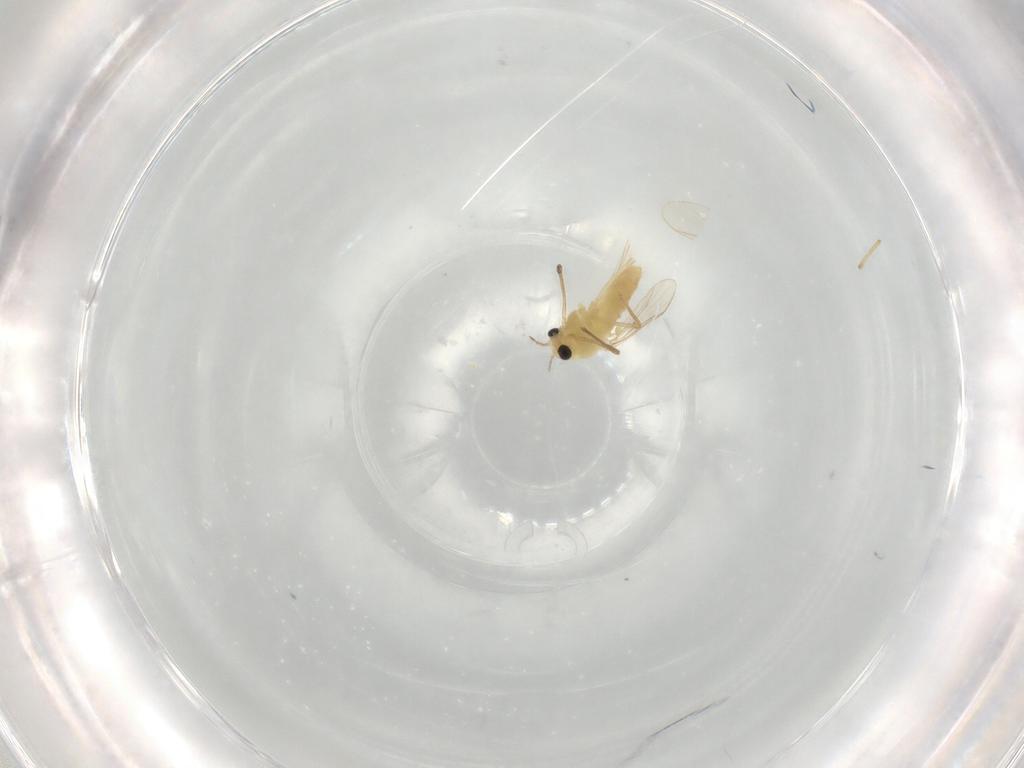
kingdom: Animalia
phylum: Arthropoda
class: Insecta
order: Diptera
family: Chironomidae
